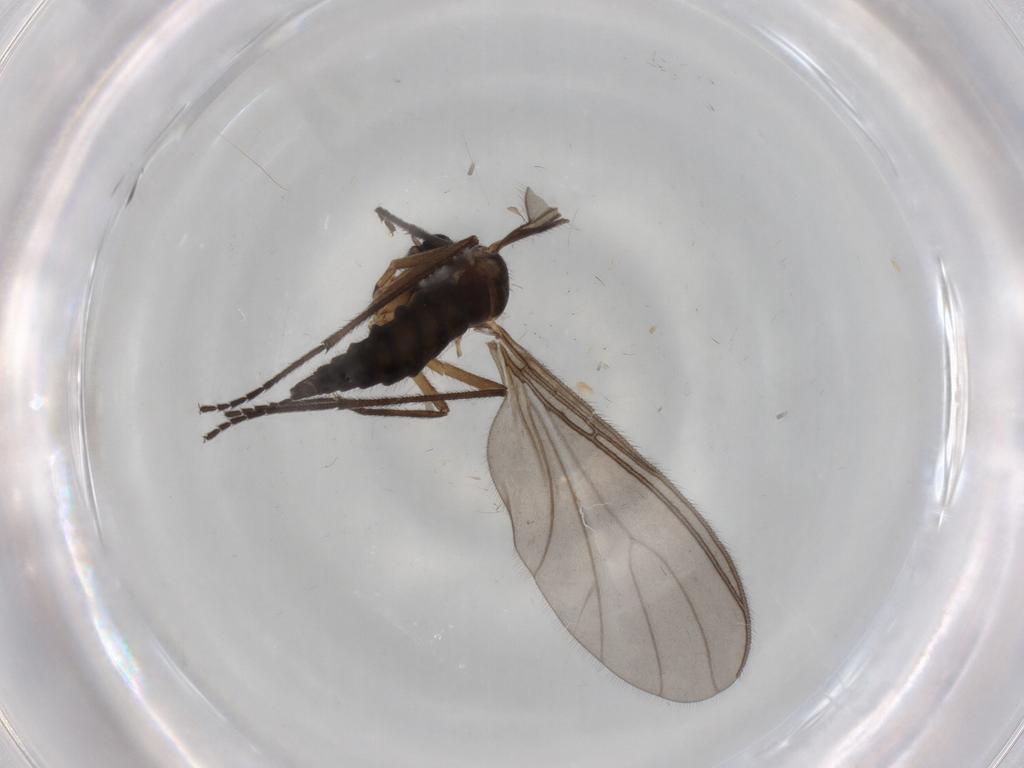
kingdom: Animalia
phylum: Arthropoda
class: Insecta
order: Diptera
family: Sciaridae
